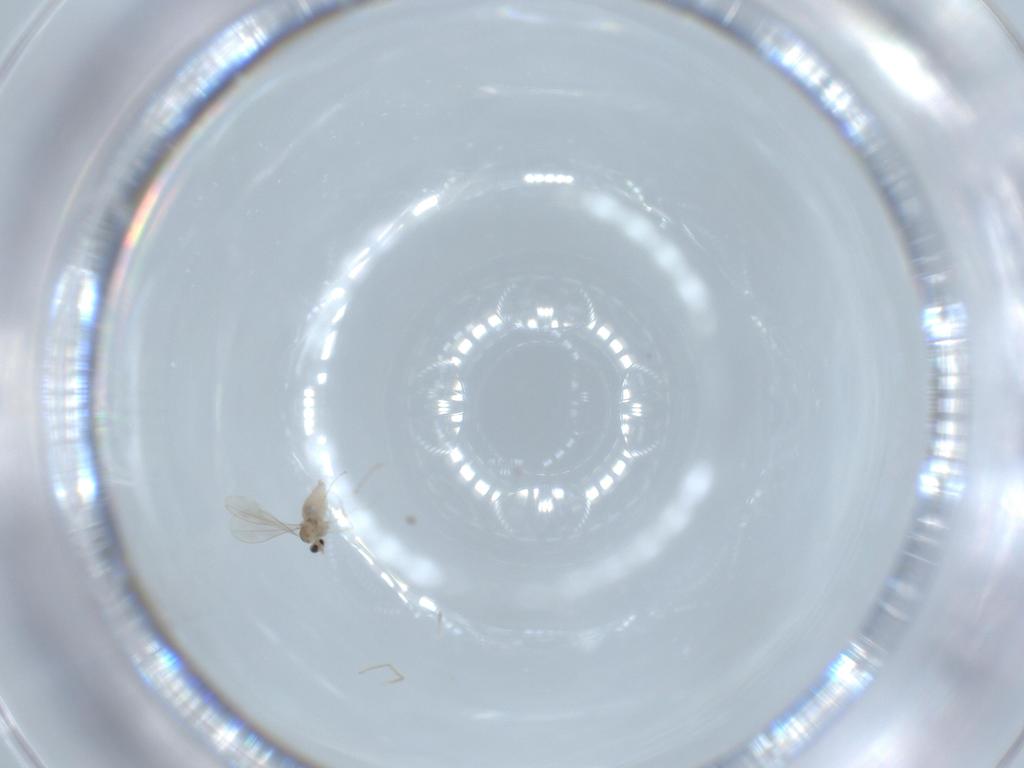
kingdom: Animalia
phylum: Arthropoda
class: Insecta
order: Diptera
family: Cecidomyiidae
